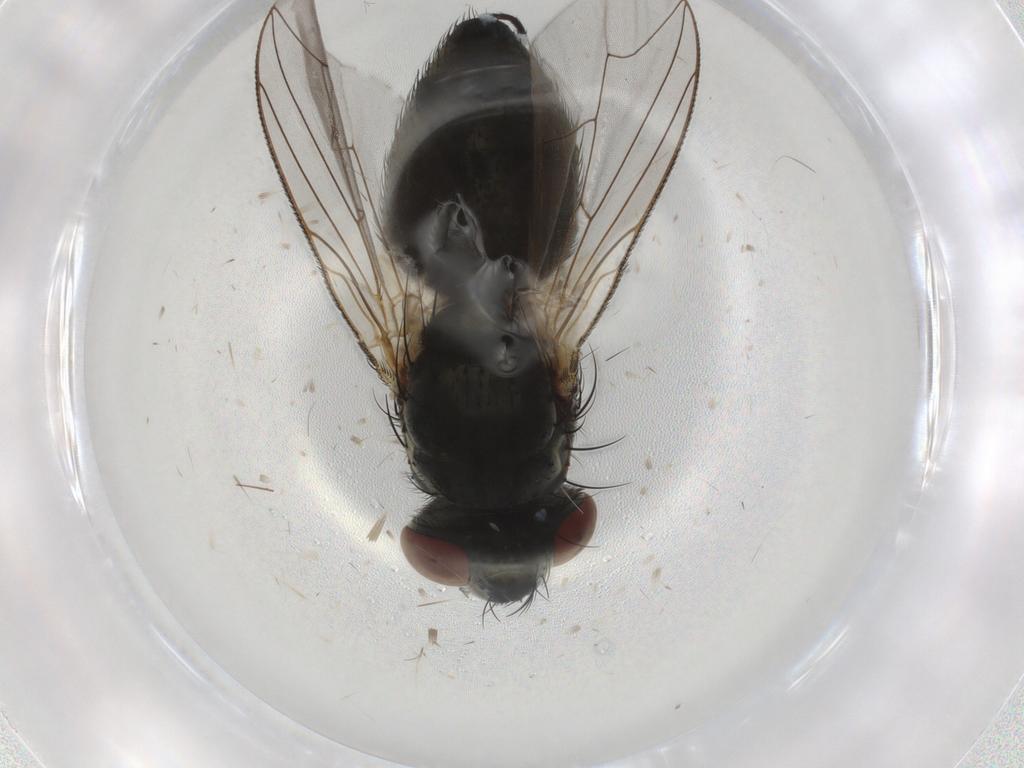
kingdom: Animalia
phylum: Arthropoda
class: Insecta
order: Diptera
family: Sarcophagidae
